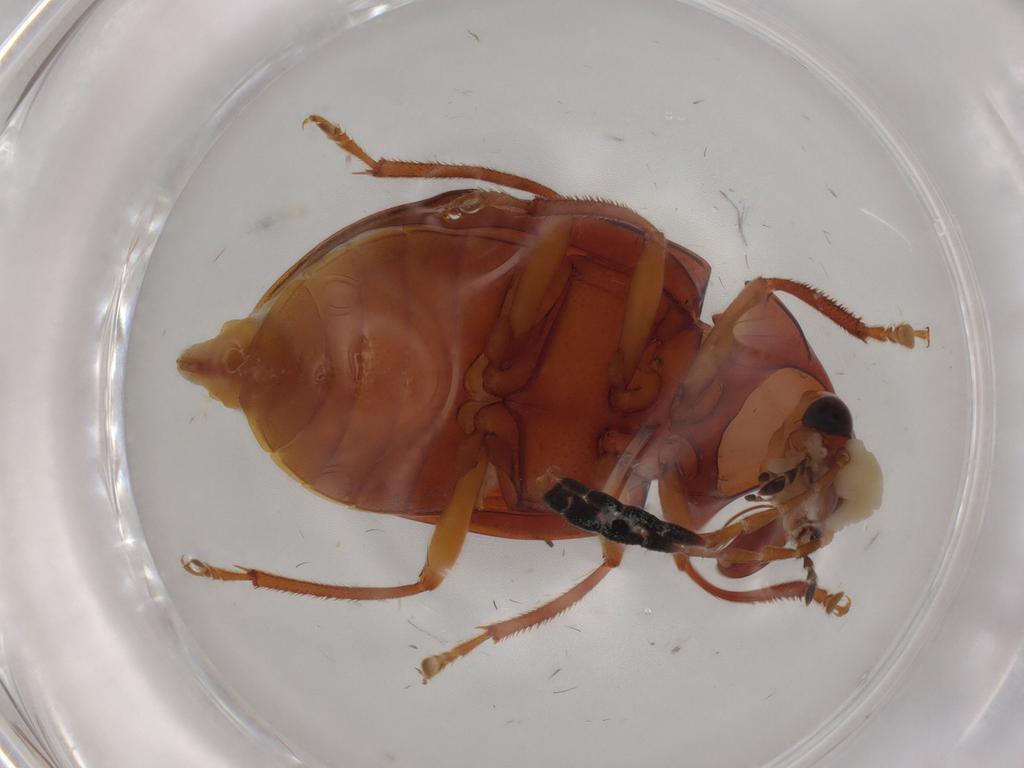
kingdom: Animalia
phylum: Arthropoda
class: Insecta
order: Coleoptera
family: Ptilodactylidae
